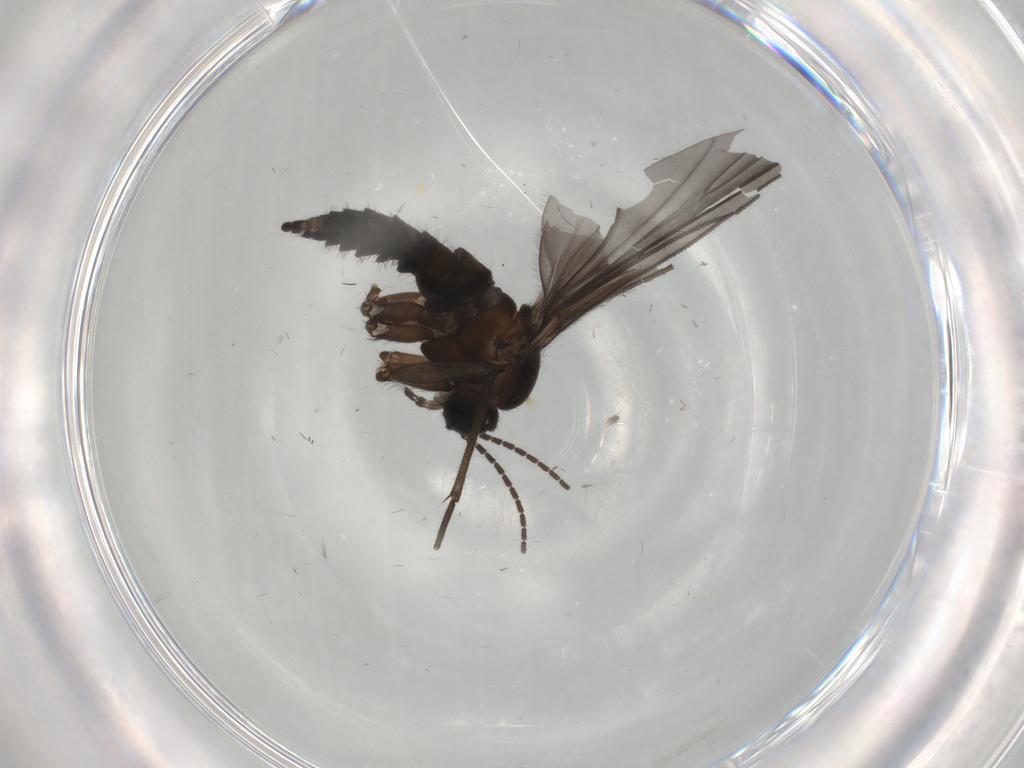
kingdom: Animalia
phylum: Arthropoda
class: Insecta
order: Diptera
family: Sciaridae
